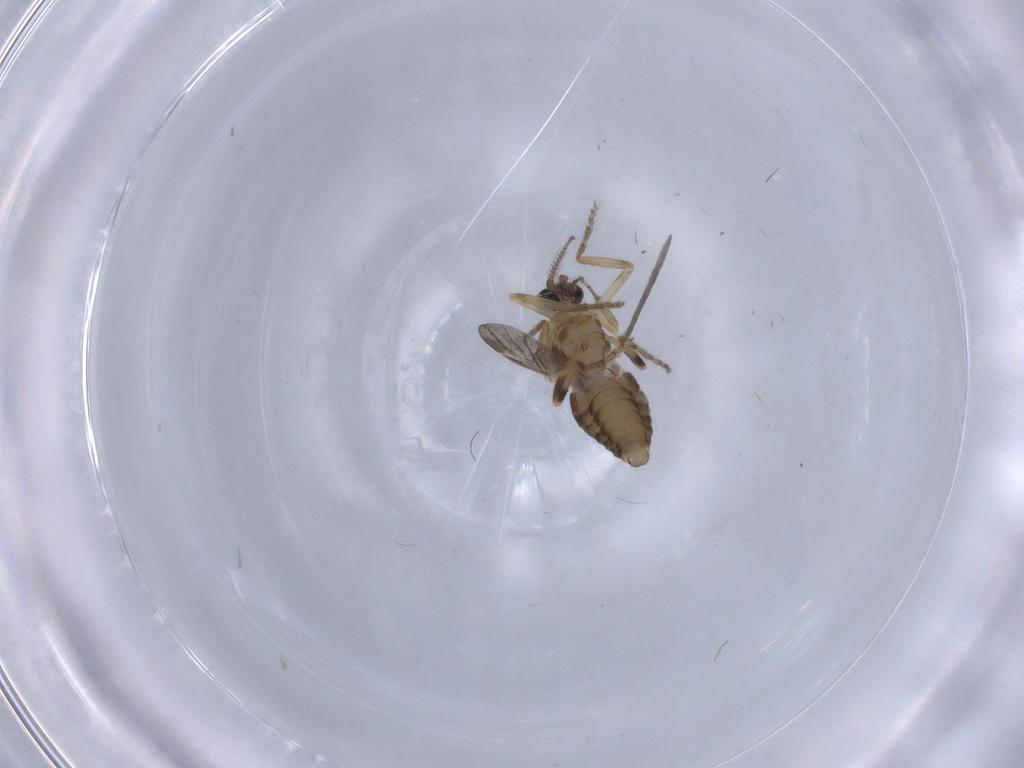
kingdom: Animalia
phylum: Arthropoda
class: Insecta
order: Diptera
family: Ceratopogonidae
